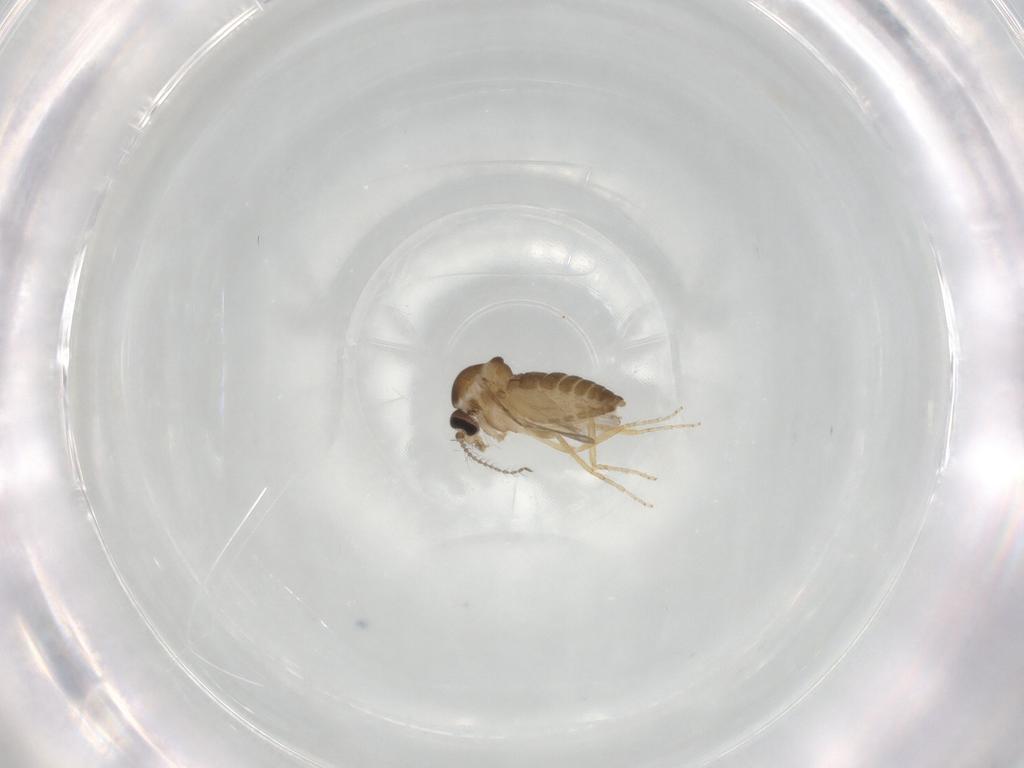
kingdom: Animalia
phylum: Arthropoda
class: Insecta
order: Diptera
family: Ceratopogonidae
